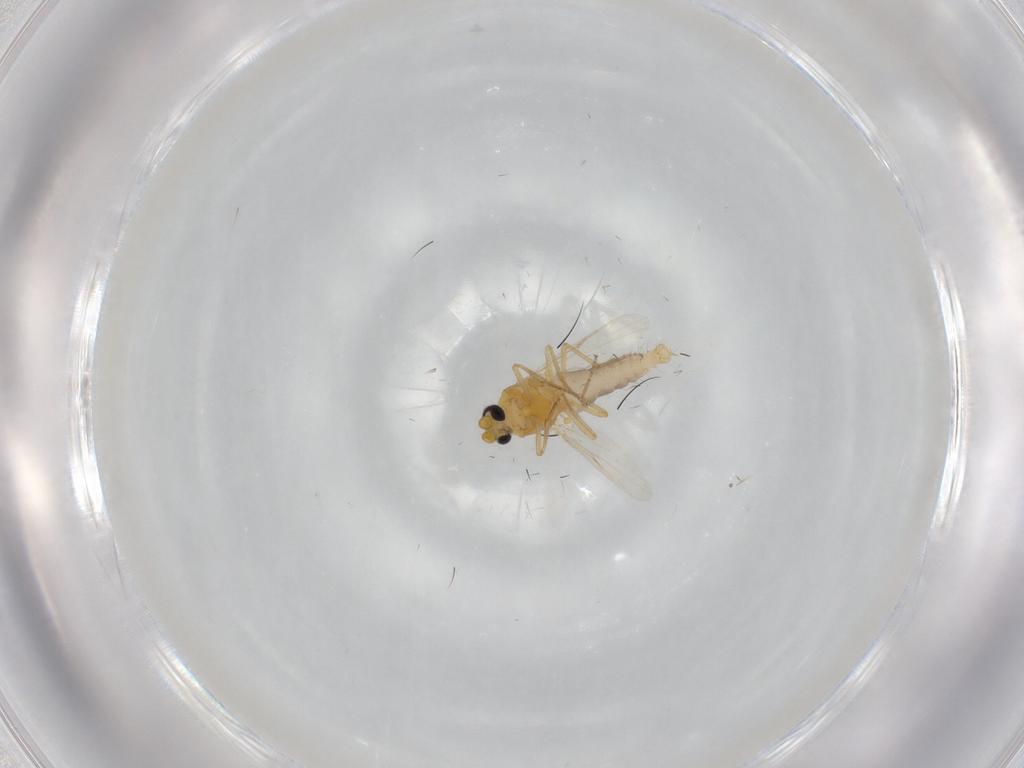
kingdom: Animalia
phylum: Arthropoda
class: Insecta
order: Diptera
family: Ceratopogonidae
